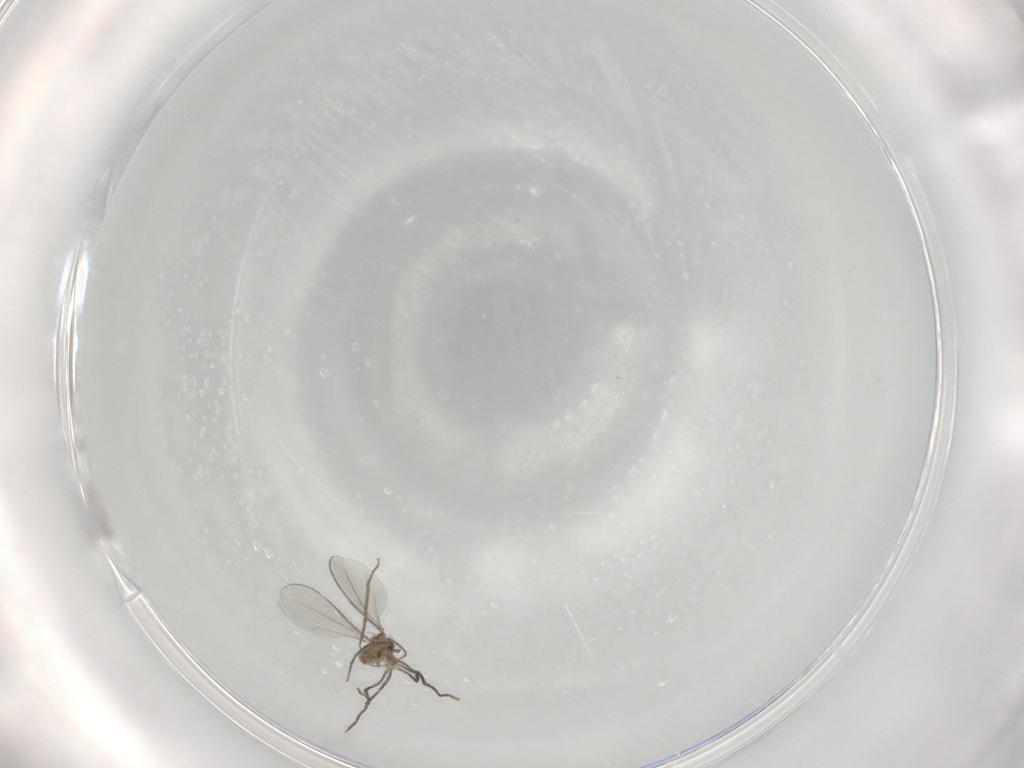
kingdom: Animalia
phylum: Arthropoda
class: Insecta
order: Diptera
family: Cecidomyiidae
